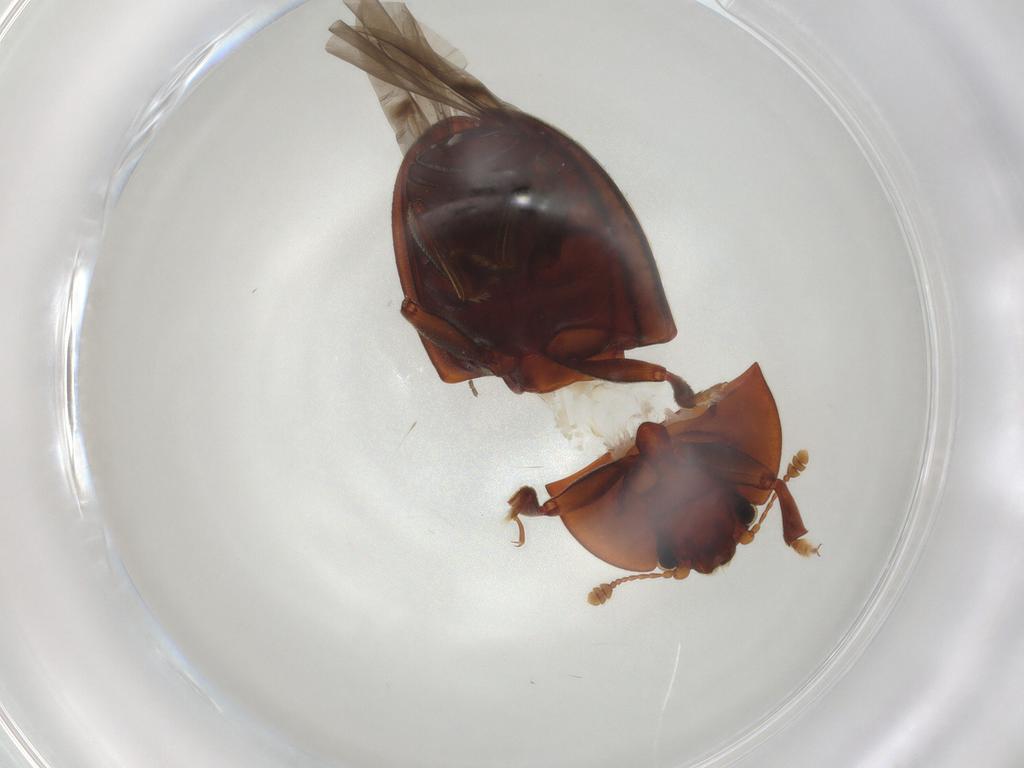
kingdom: Animalia
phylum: Arthropoda
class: Insecta
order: Coleoptera
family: Nitidulidae
